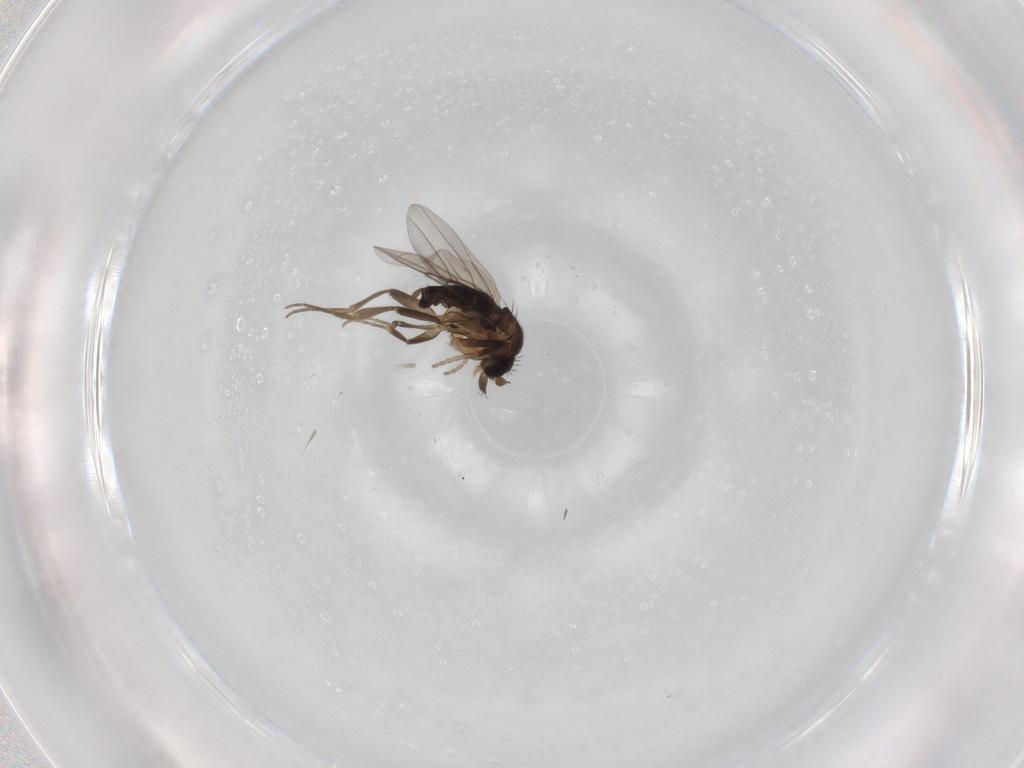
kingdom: Animalia
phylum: Arthropoda
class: Insecta
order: Diptera
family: Phoridae
